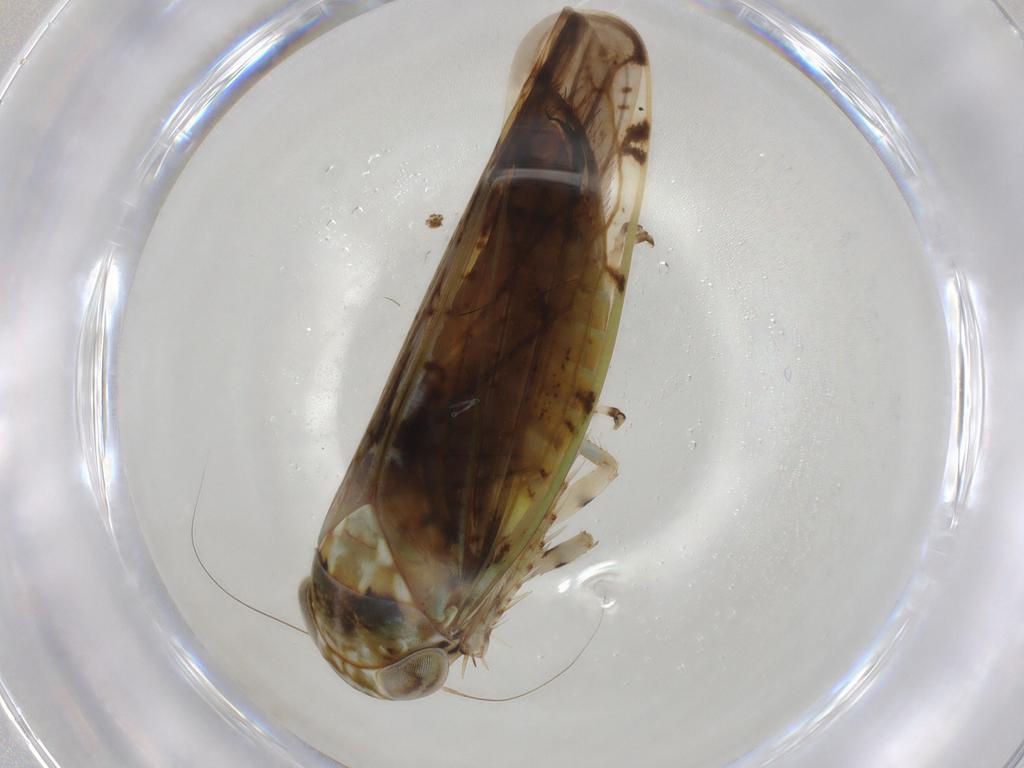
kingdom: Animalia
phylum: Arthropoda
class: Insecta
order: Hemiptera
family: Cicadellidae
